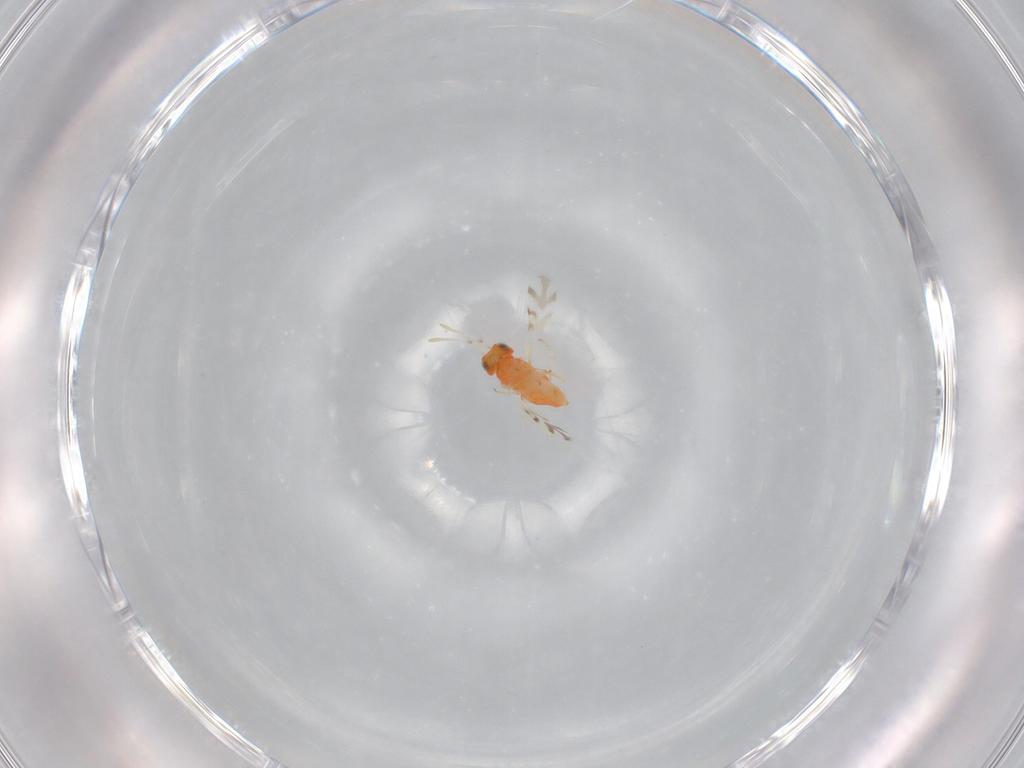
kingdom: Animalia
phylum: Arthropoda
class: Insecta
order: Hymenoptera
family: Encyrtidae
